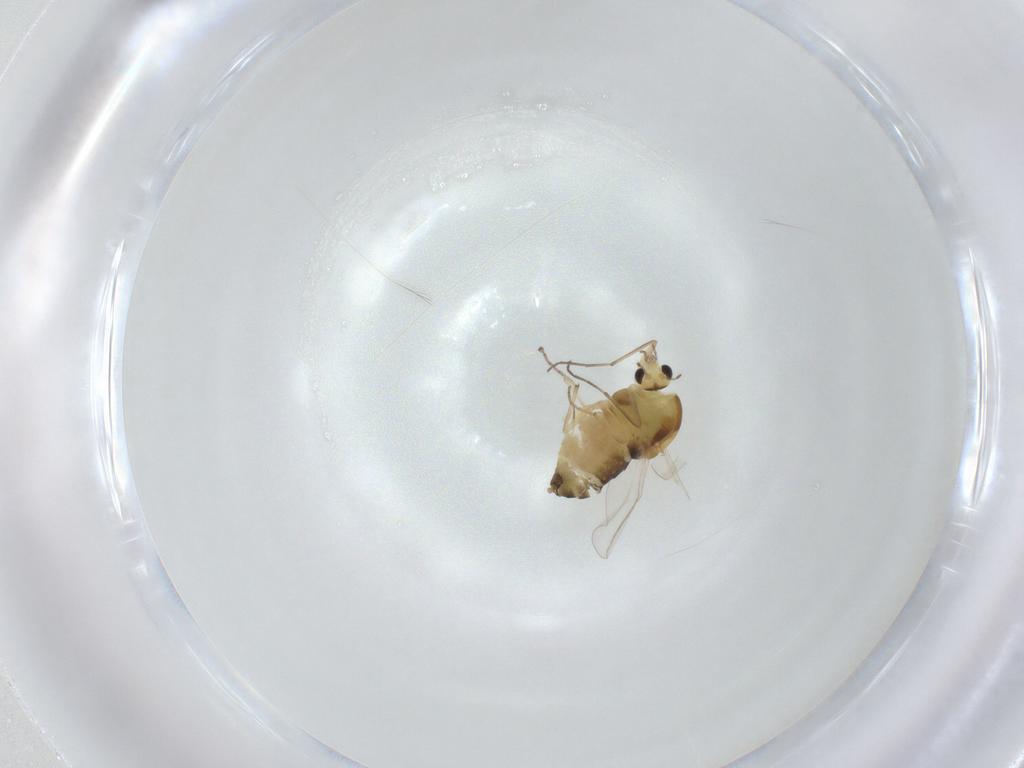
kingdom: Animalia
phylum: Arthropoda
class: Insecta
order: Diptera
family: Chironomidae
